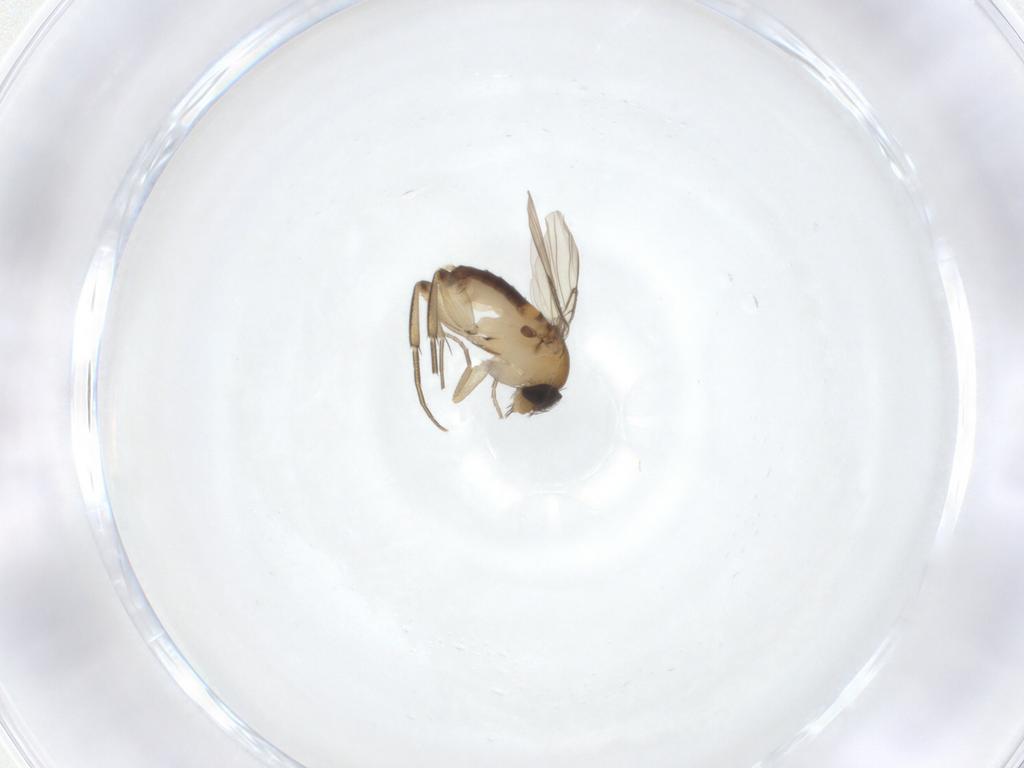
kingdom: Animalia
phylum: Arthropoda
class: Insecta
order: Diptera
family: Phoridae
